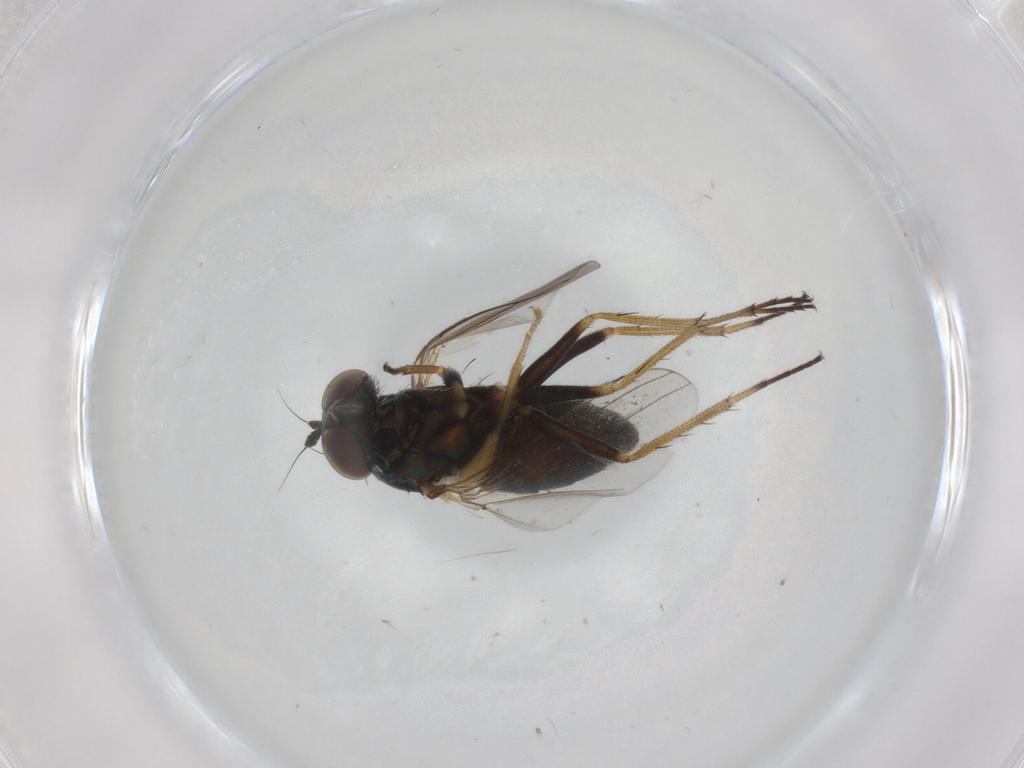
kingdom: Animalia
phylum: Arthropoda
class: Insecta
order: Diptera
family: Drosophilidae
